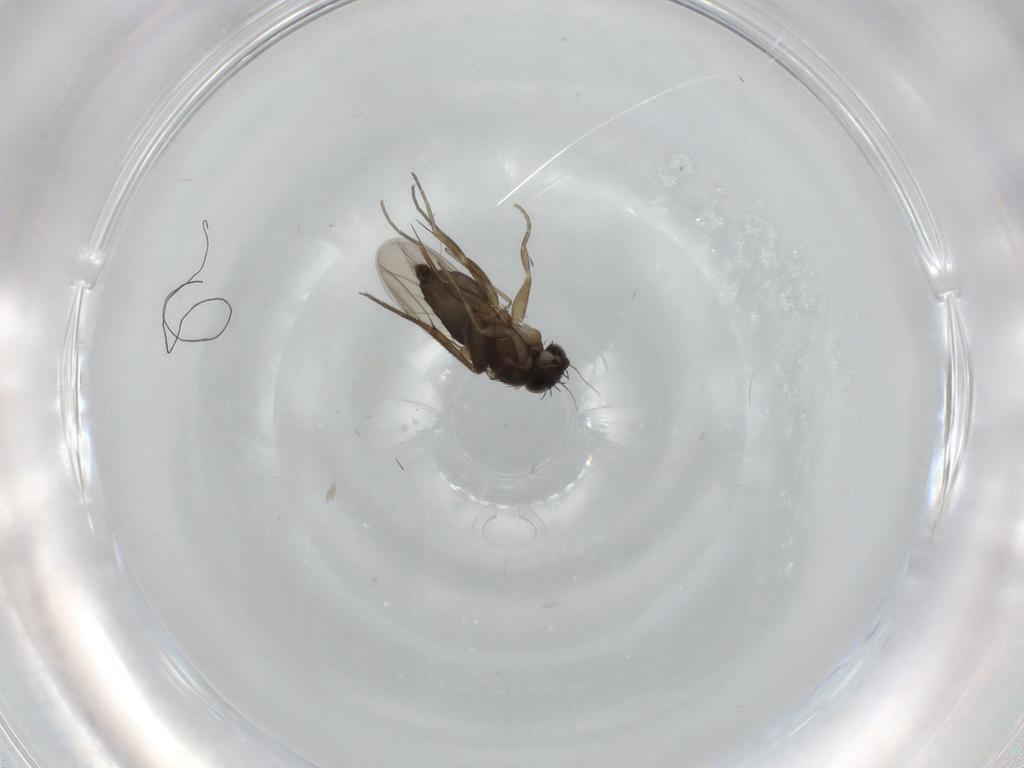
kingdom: Animalia
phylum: Arthropoda
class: Insecta
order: Diptera
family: Phoridae
